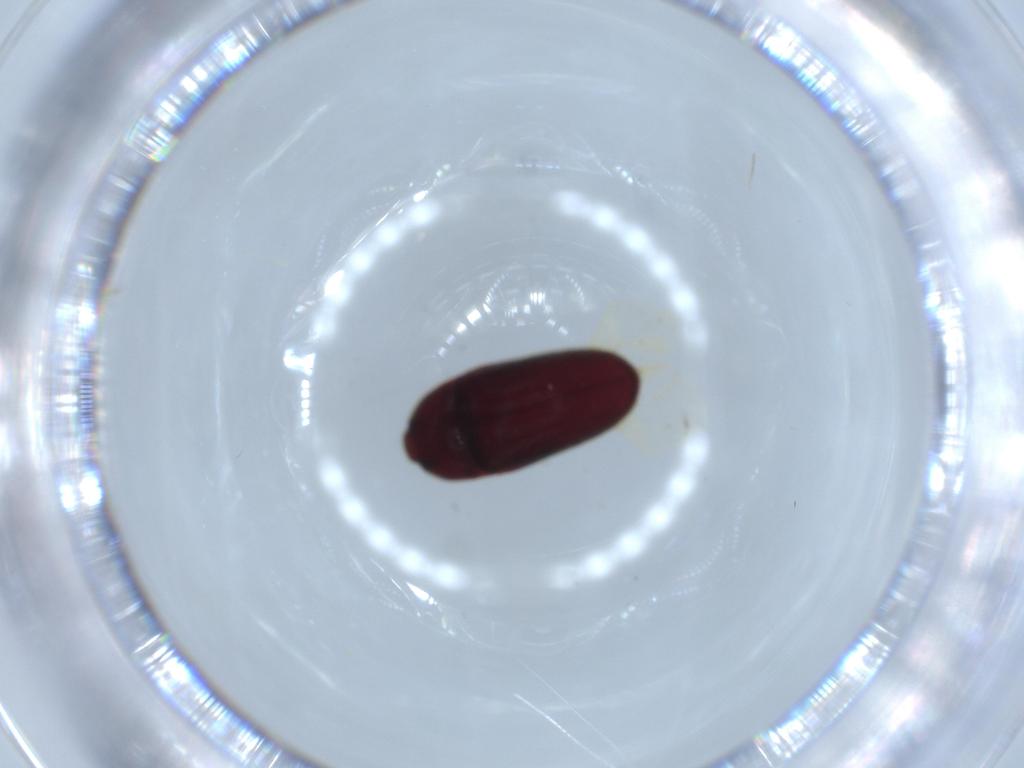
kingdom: Animalia
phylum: Arthropoda
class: Insecta
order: Coleoptera
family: Throscidae
